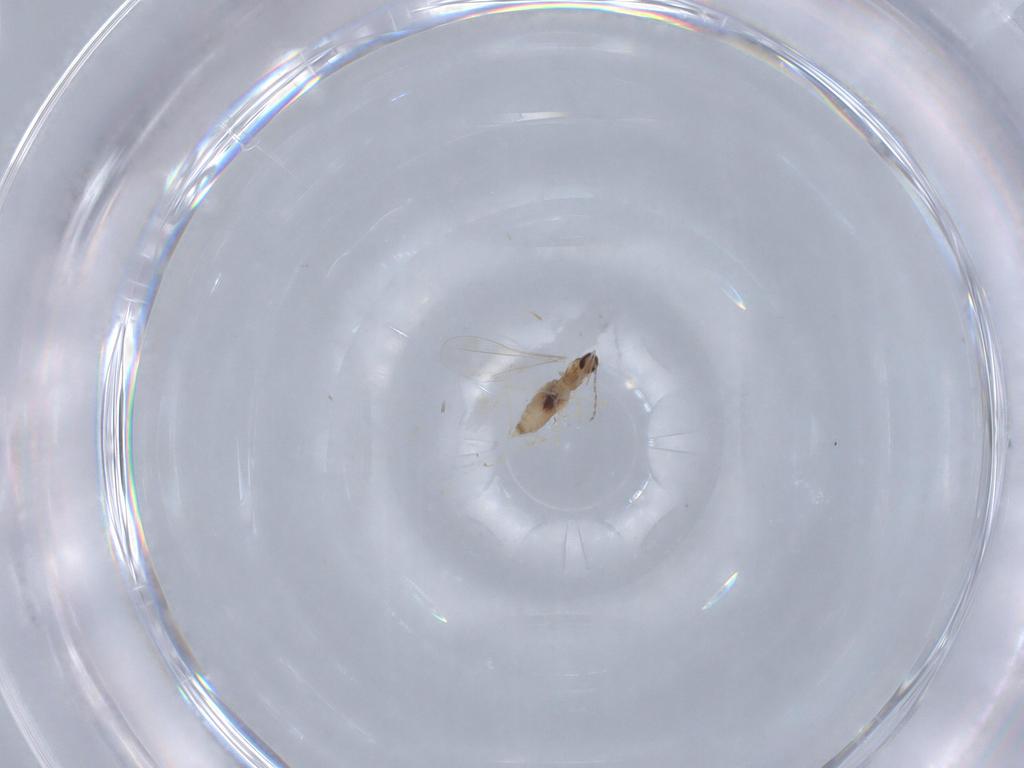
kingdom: Animalia
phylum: Arthropoda
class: Insecta
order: Diptera
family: Cecidomyiidae
